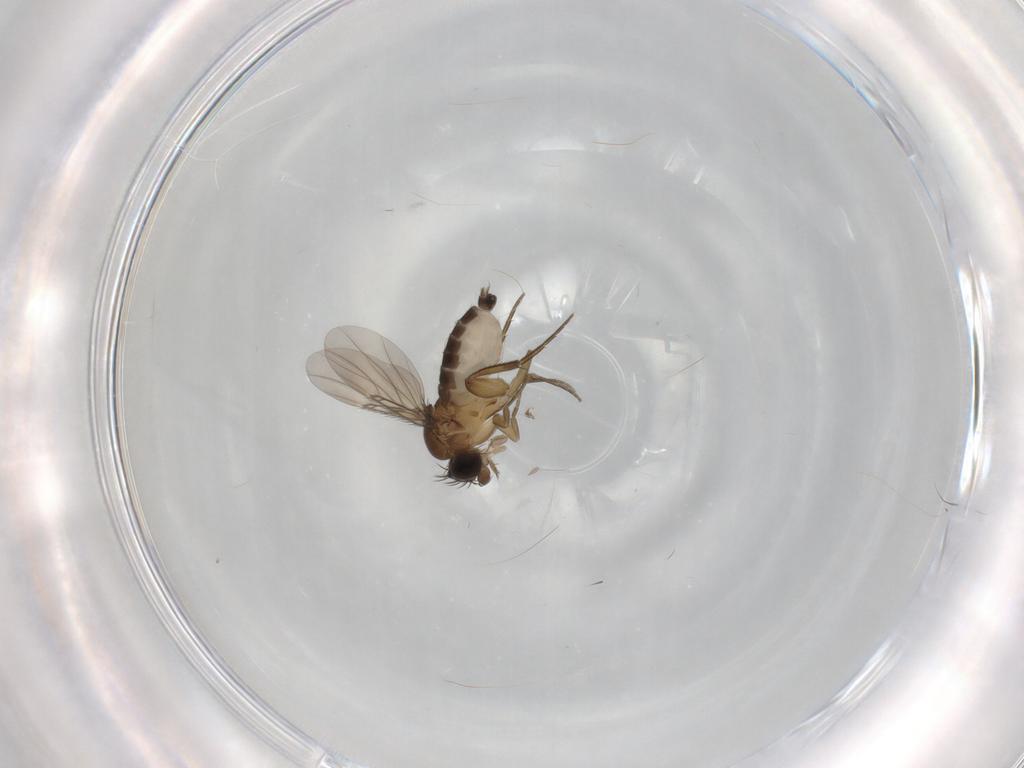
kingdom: Animalia
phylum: Arthropoda
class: Insecta
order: Diptera
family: Phoridae
